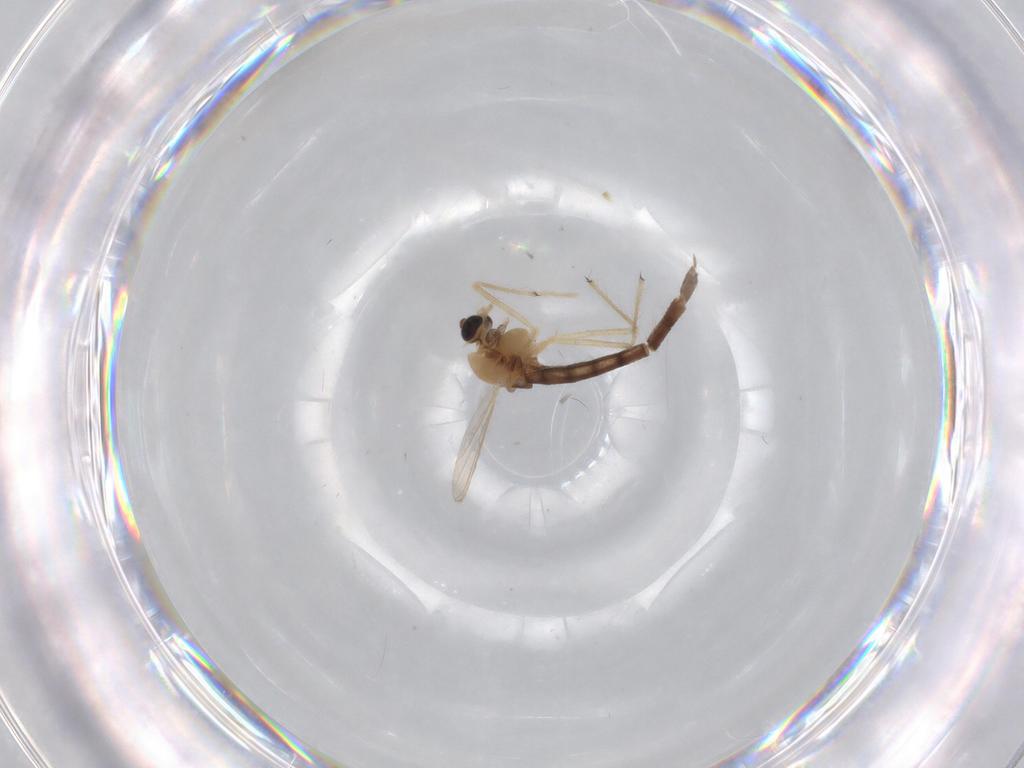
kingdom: Animalia
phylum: Arthropoda
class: Insecta
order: Diptera
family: Chironomidae
